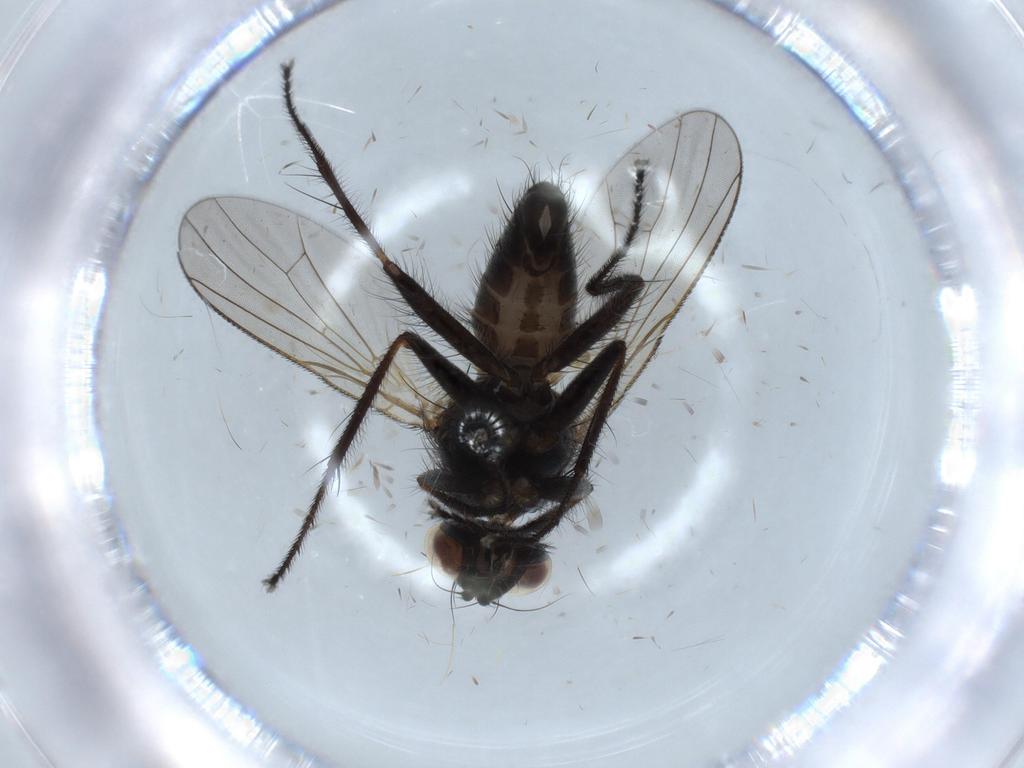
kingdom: Animalia
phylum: Arthropoda
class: Insecta
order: Diptera
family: Sciaridae
